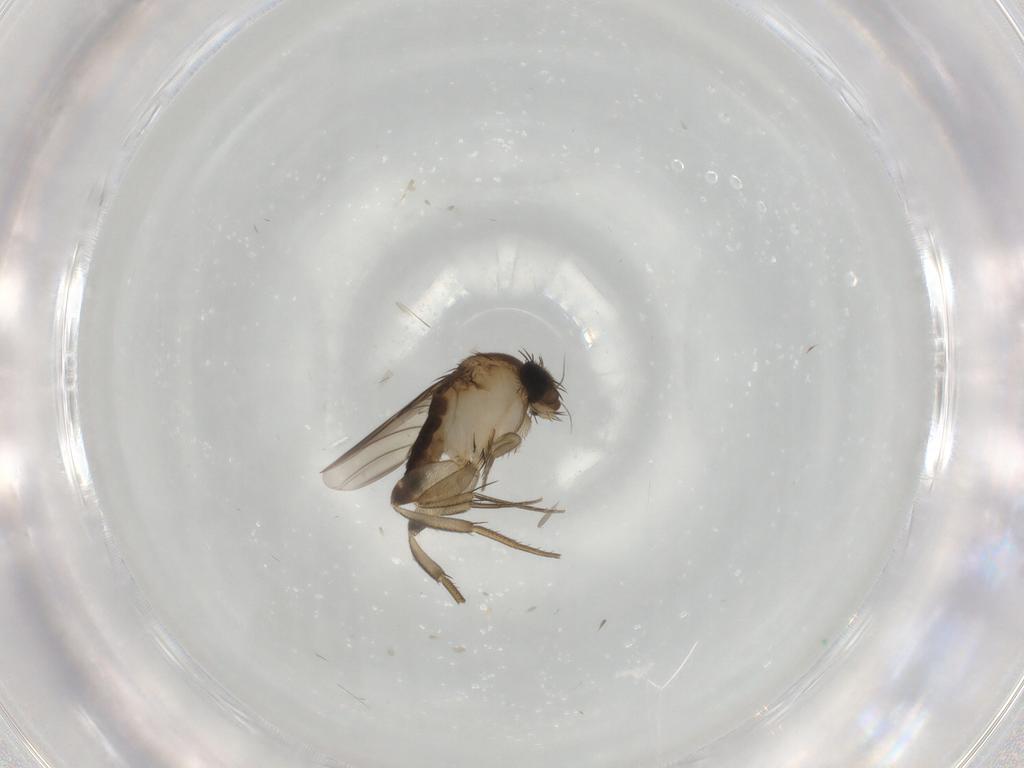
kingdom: Animalia
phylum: Arthropoda
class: Insecta
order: Diptera
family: Phoridae
